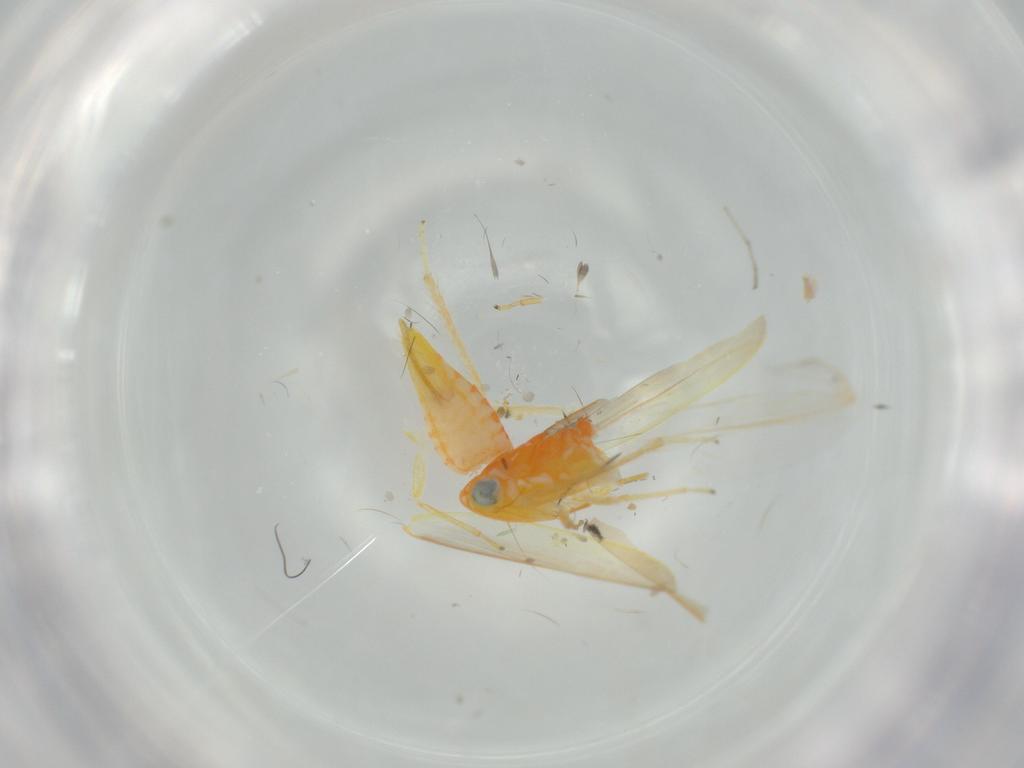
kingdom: Animalia
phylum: Arthropoda
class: Insecta
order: Hemiptera
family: Cicadellidae
